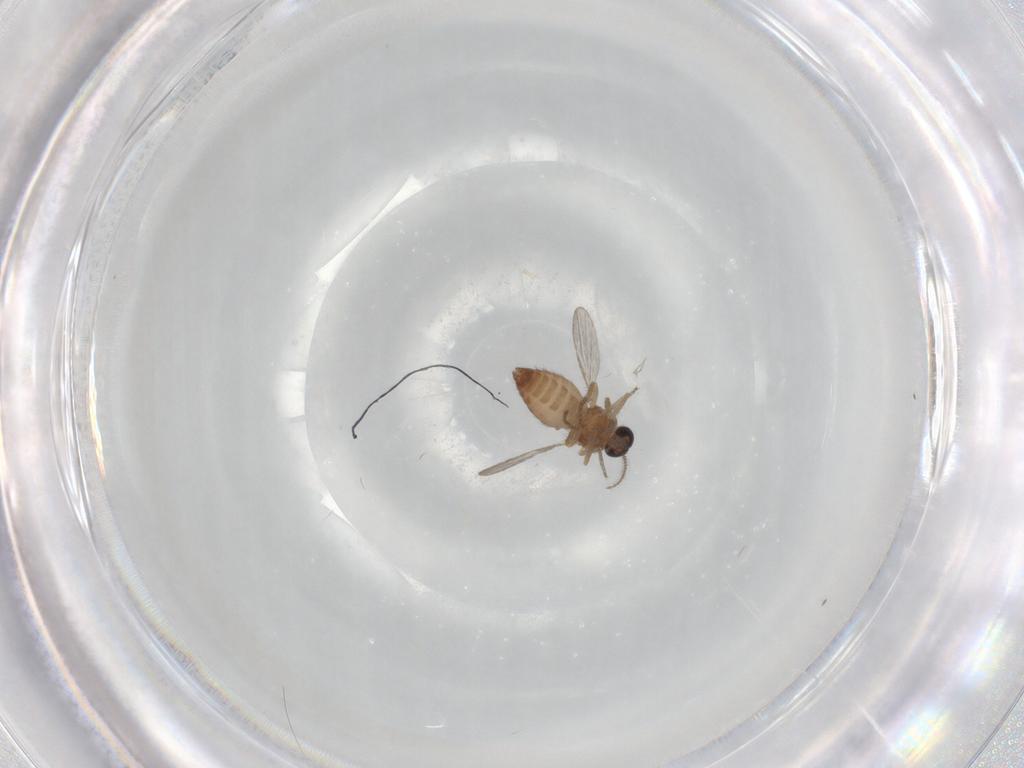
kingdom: Animalia
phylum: Arthropoda
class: Insecta
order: Diptera
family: Ceratopogonidae
